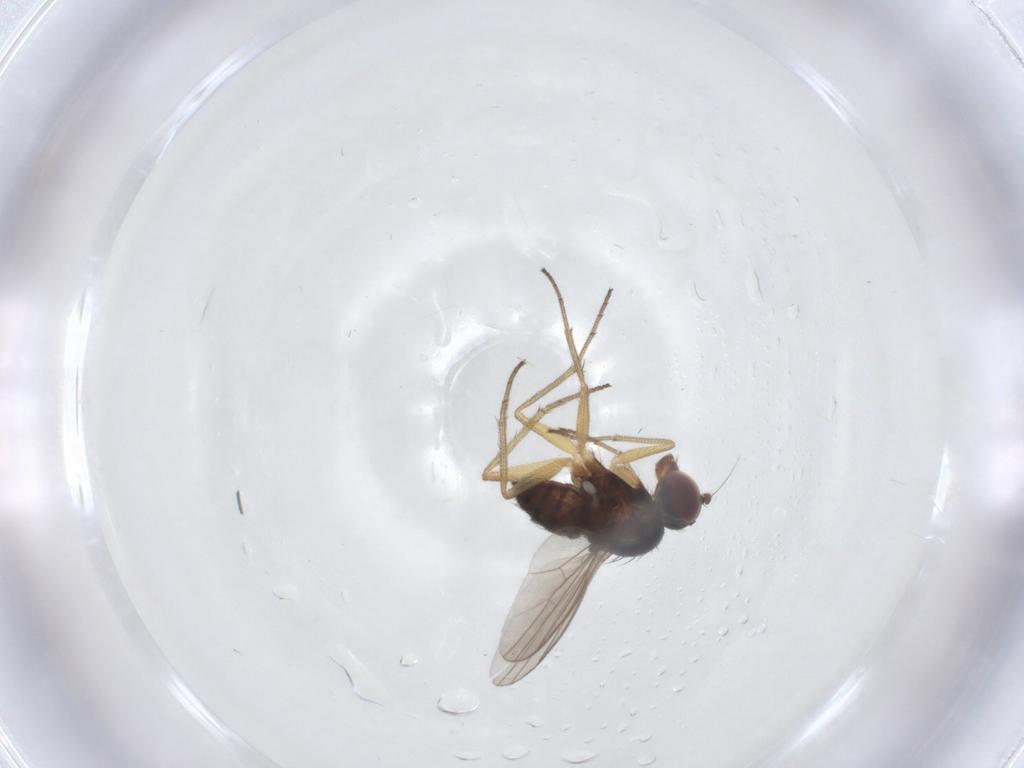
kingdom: Animalia
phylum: Arthropoda
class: Insecta
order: Diptera
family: Dolichopodidae
